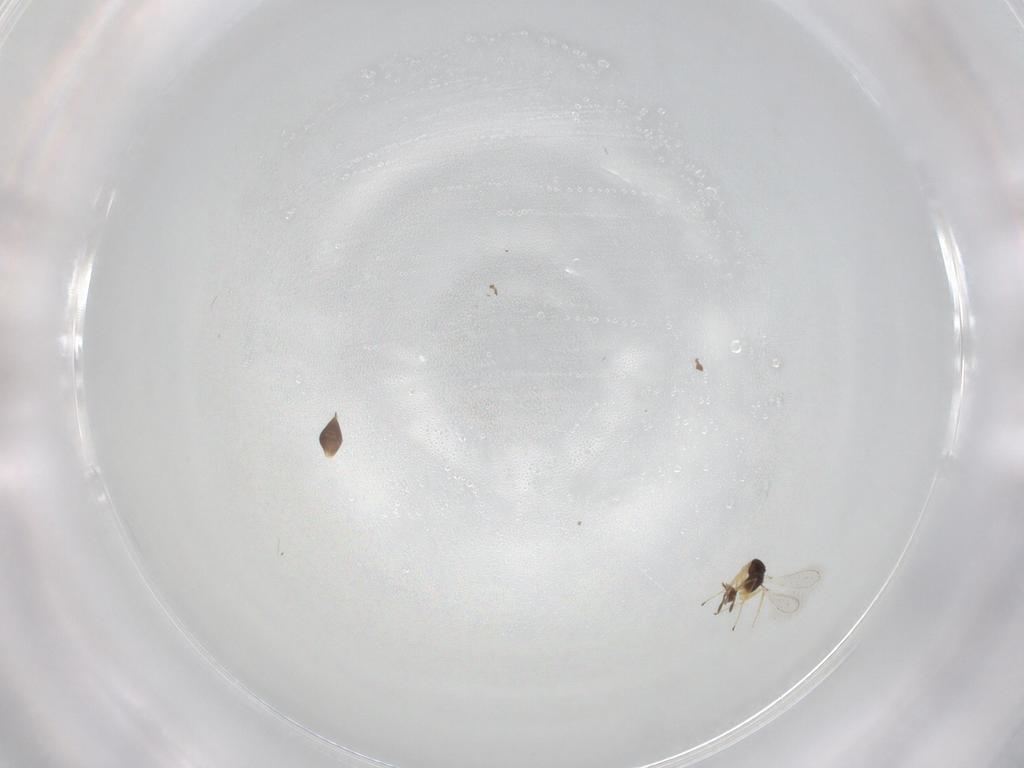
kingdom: Animalia
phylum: Arthropoda
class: Insecta
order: Hymenoptera
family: Mymaridae
